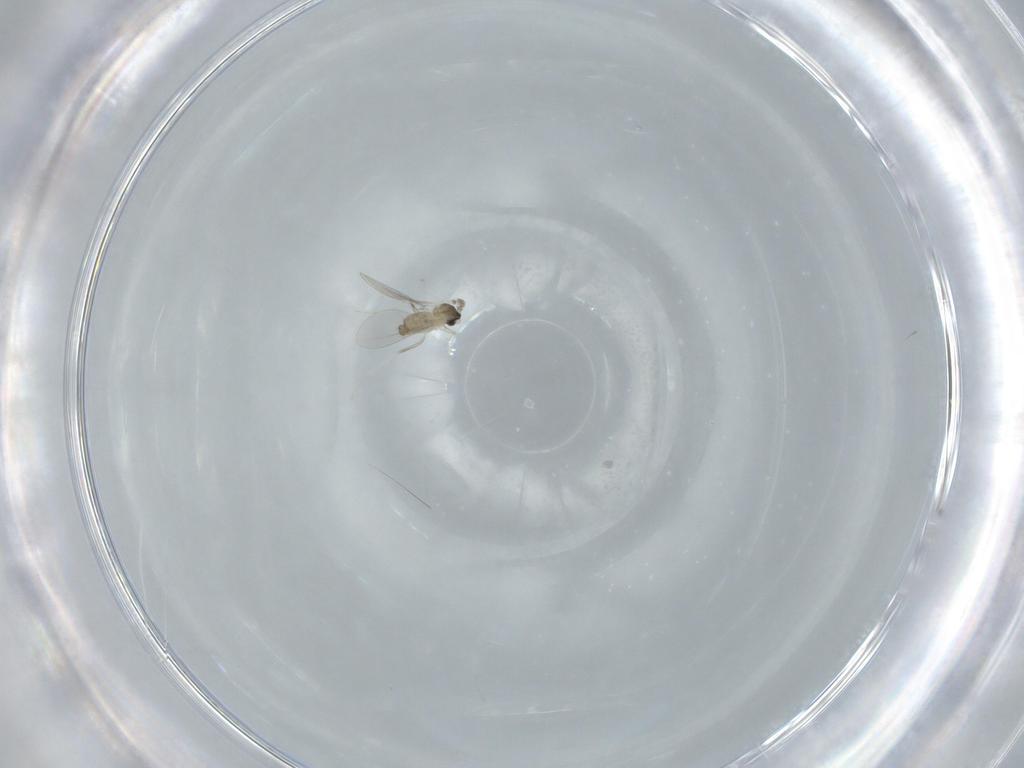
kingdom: Animalia
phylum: Arthropoda
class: Insecta
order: Diptera
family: Cecidomyiidae
